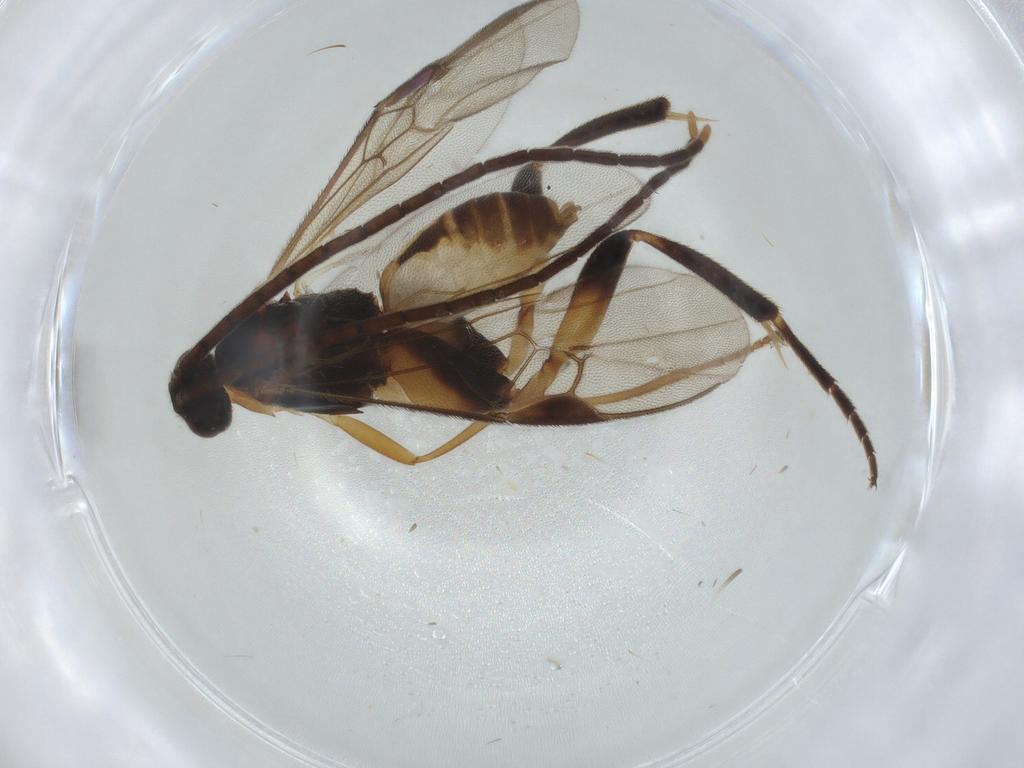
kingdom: Animalia
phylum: Arthropoda
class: Insecta
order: Hymenoptera
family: Braconidae
